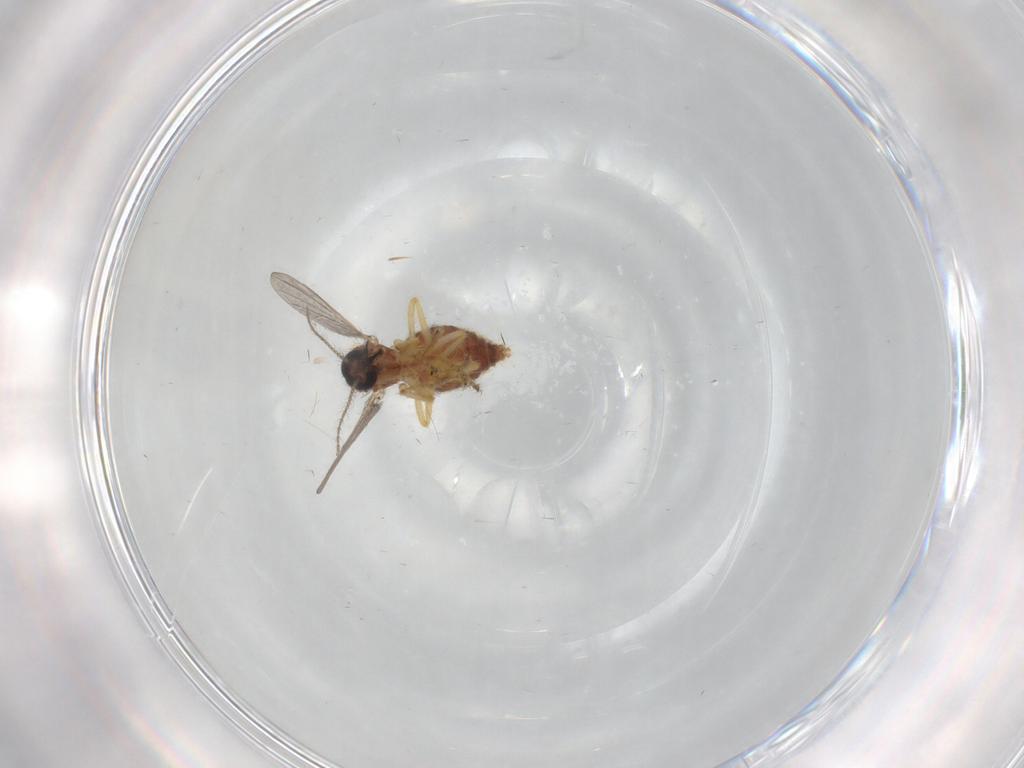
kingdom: Animalia
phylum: Arthropoda
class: Insecta
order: Diptera
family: Ceratopogonidae
